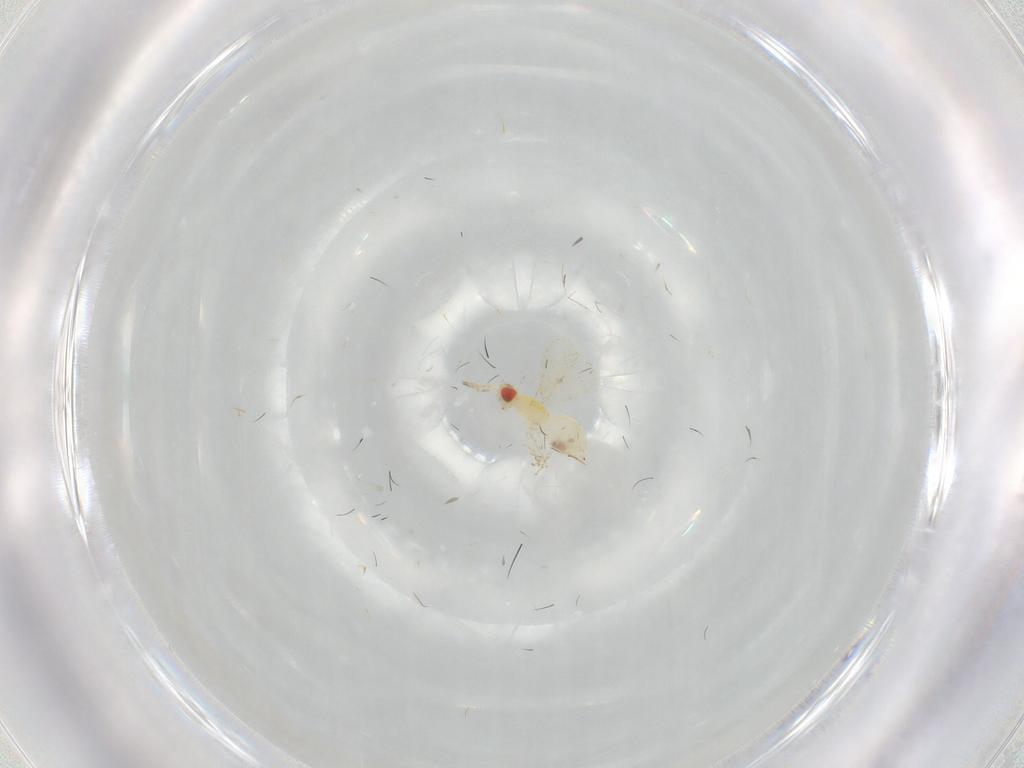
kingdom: Animalia
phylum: Arthropoda
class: Insecta
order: Hymenoptera
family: Eulophidae
